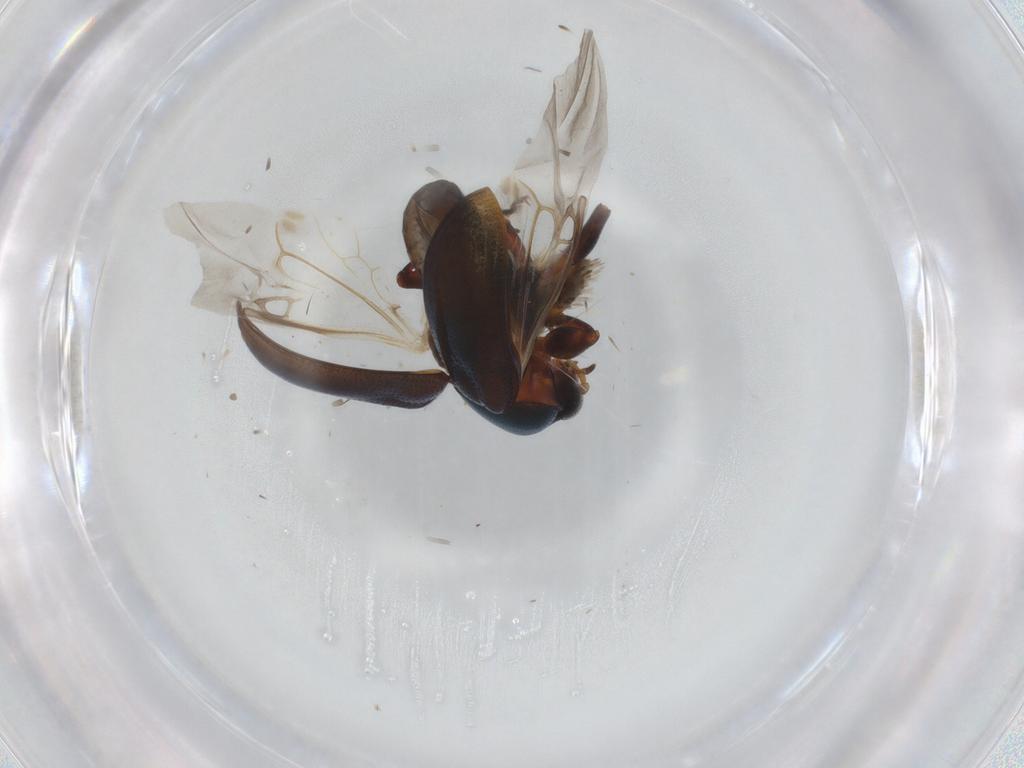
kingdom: Animalia
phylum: Arthropoda
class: Insecta
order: Coleoptera
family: Chrysomelidae
